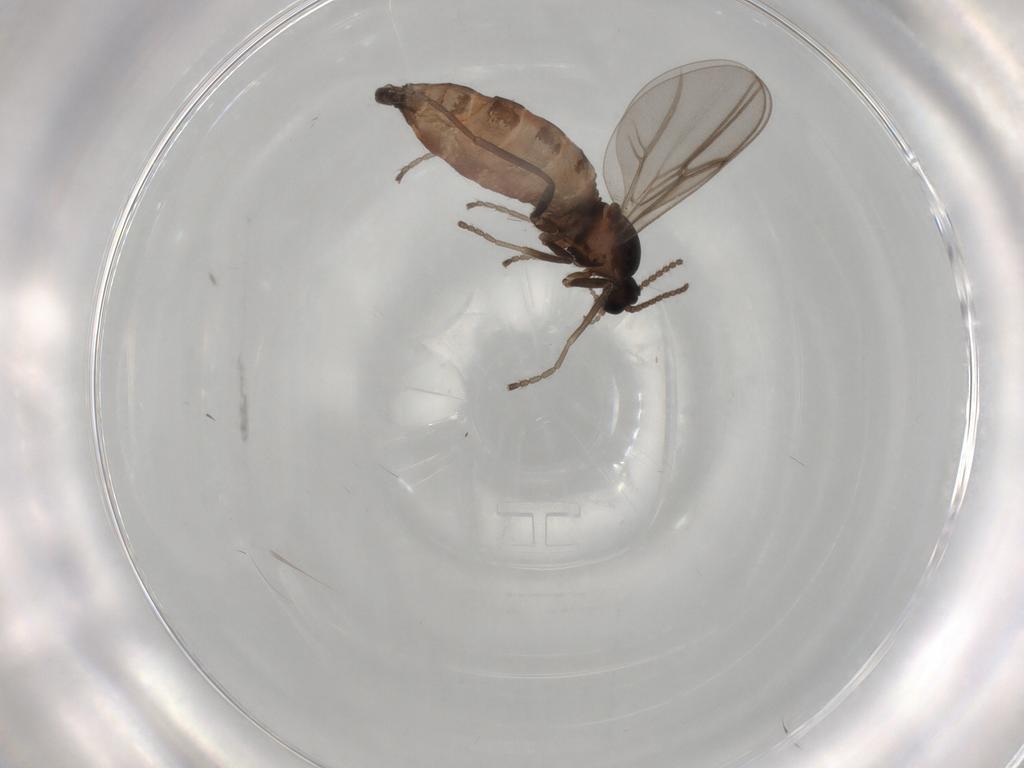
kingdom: Animalia
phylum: Arthropoda
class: Insecta
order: Diptera
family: Cecidomyiidae
